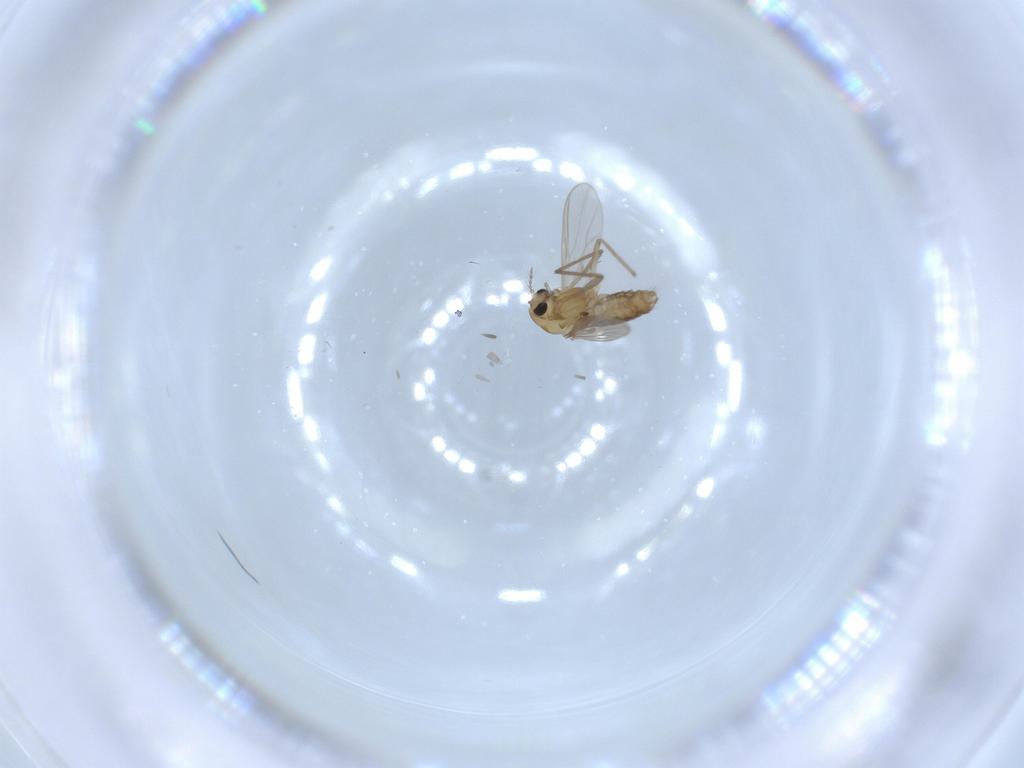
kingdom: Animalia
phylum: Arthropoda
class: Insecta
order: Diptera
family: Chironomidae
